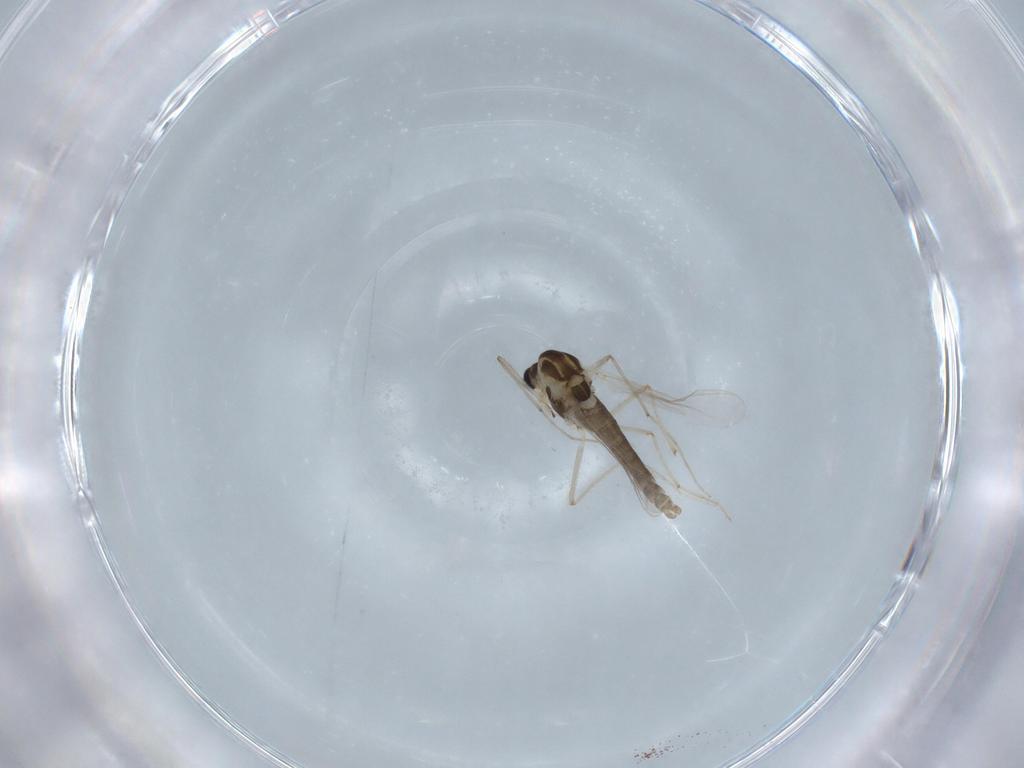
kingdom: Animalia
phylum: Arthropoda
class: Insecta
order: Diptera
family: Chironomidae
